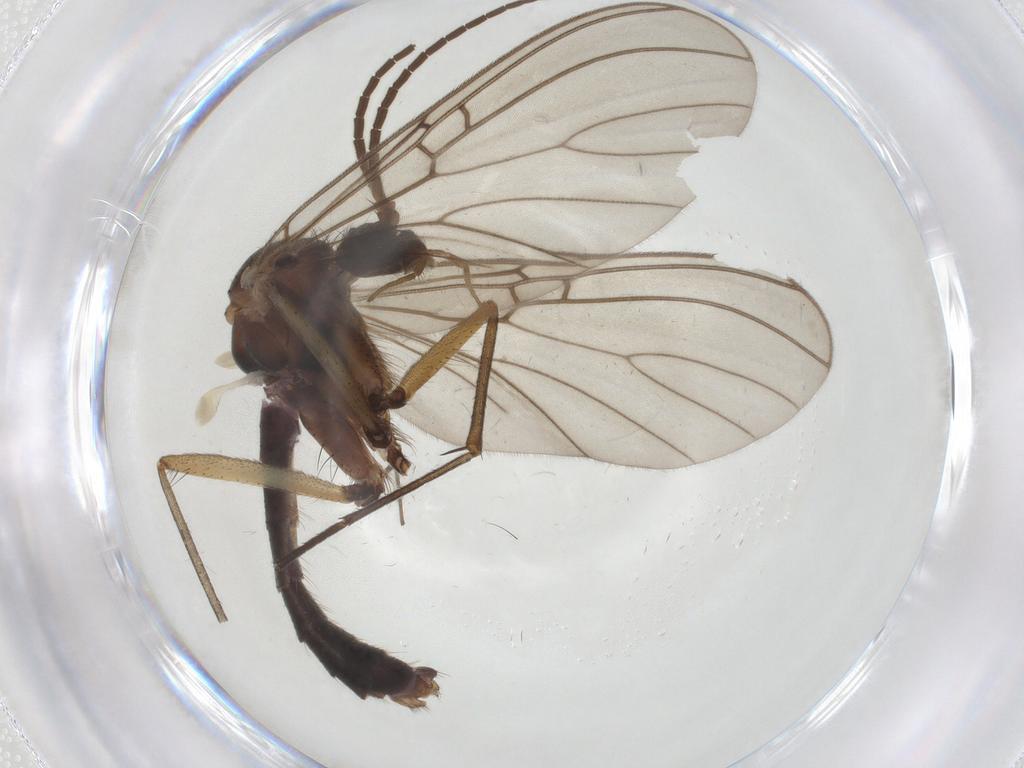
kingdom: Animalia
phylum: Arthropoda
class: Insecta
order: Diptera
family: Mycetophilidae
